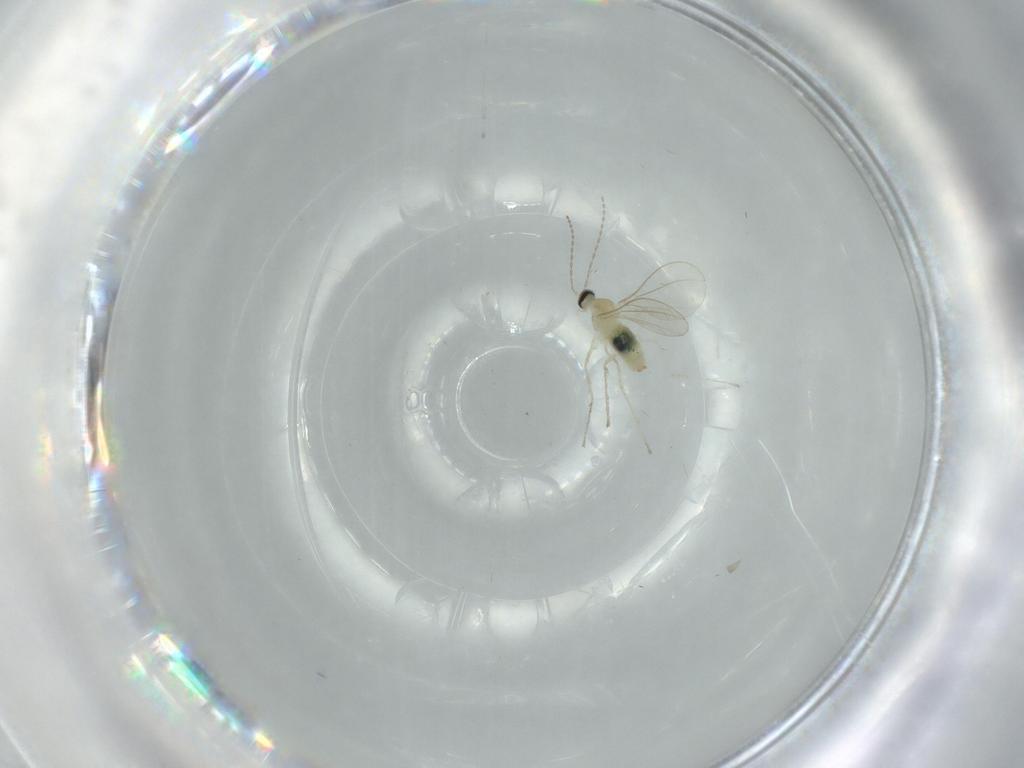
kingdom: Animalia
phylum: Arthropoda
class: Insecta
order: Diptera
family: Cecidomyiidae
